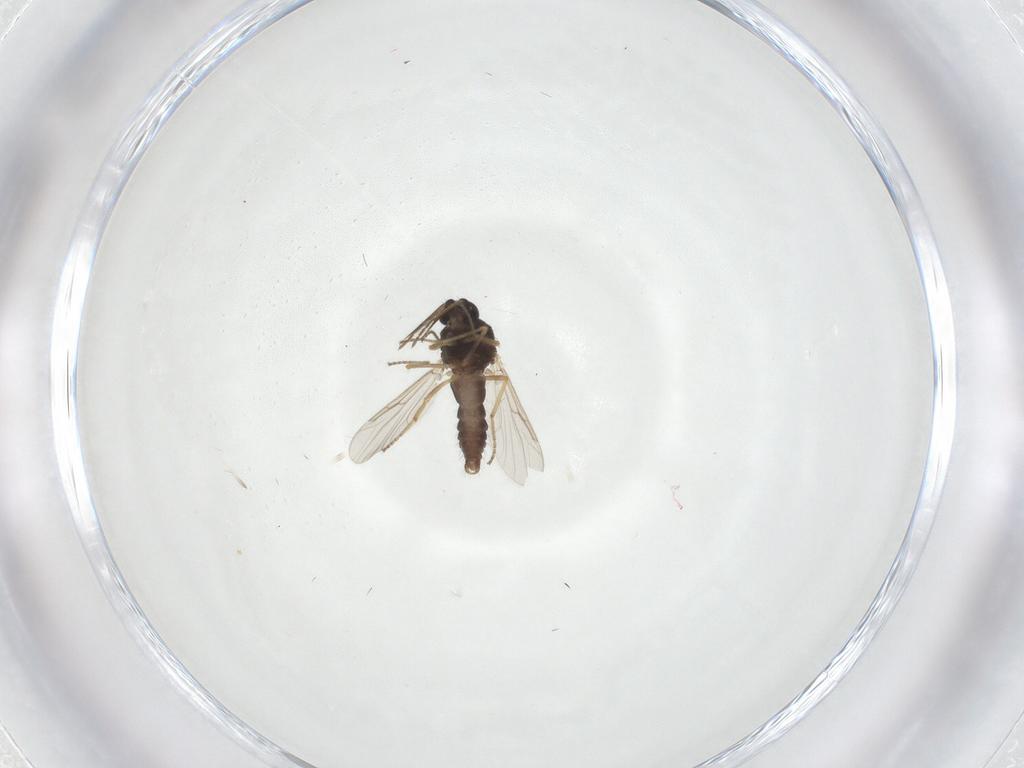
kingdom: Animalia
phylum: Arthropoda
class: Insecta
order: Diptera
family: Ceratopogonidae
